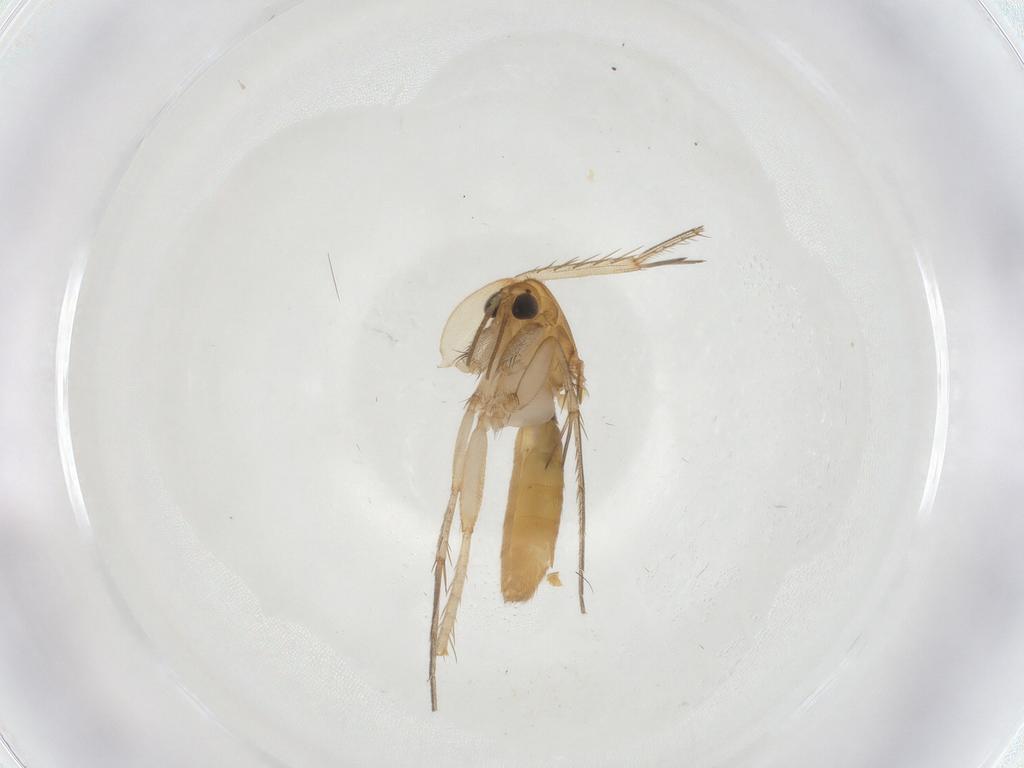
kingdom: Animalia
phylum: Arthropoda
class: Insecta
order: Diptera
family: Mycetophilidae
